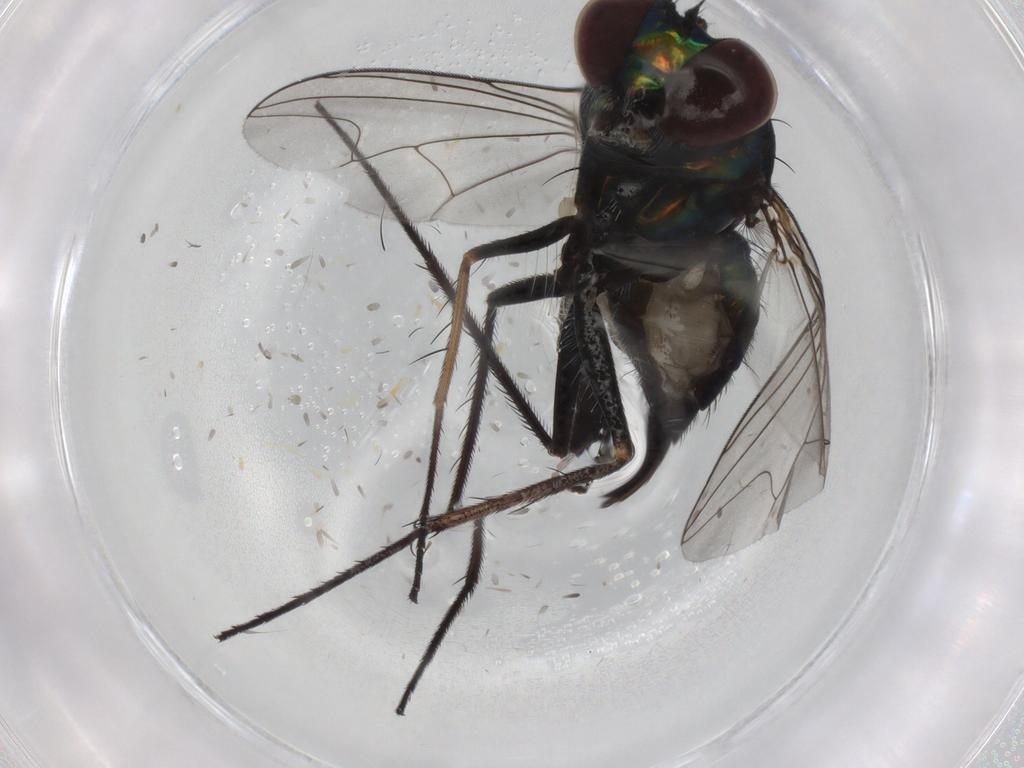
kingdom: Animalia
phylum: Arthropoda
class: Insecta
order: Diptera
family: Dolichopodidae
